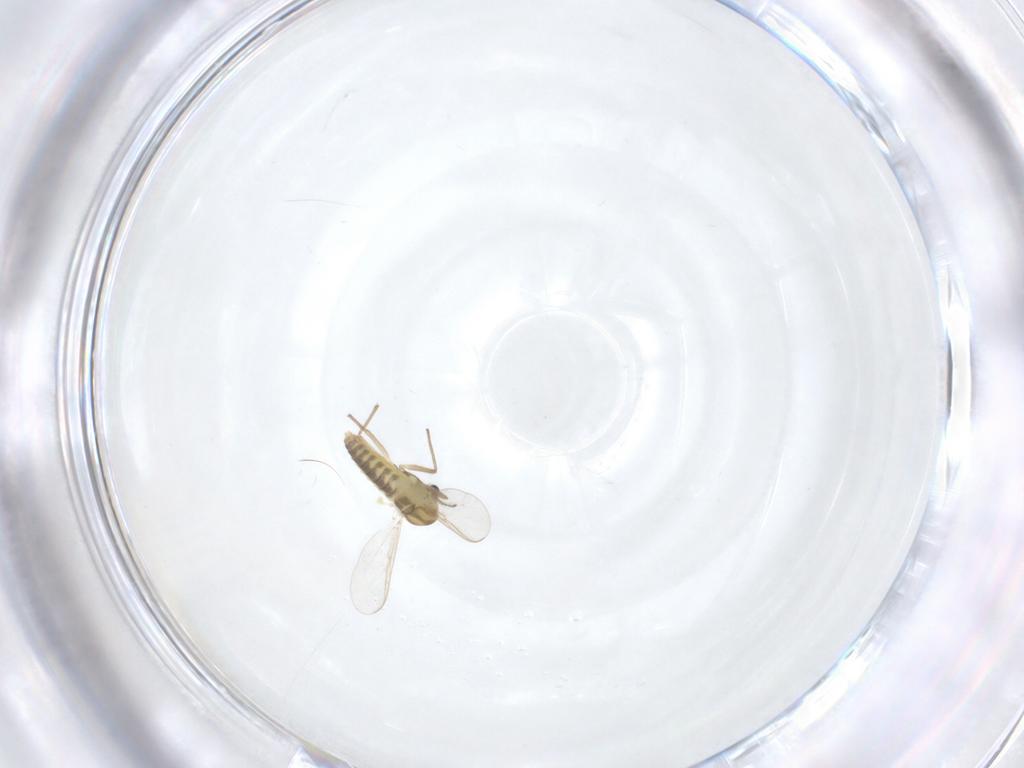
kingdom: Animalia
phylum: Arthropoda
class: Insecta
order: Diptera
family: Chironomidae
